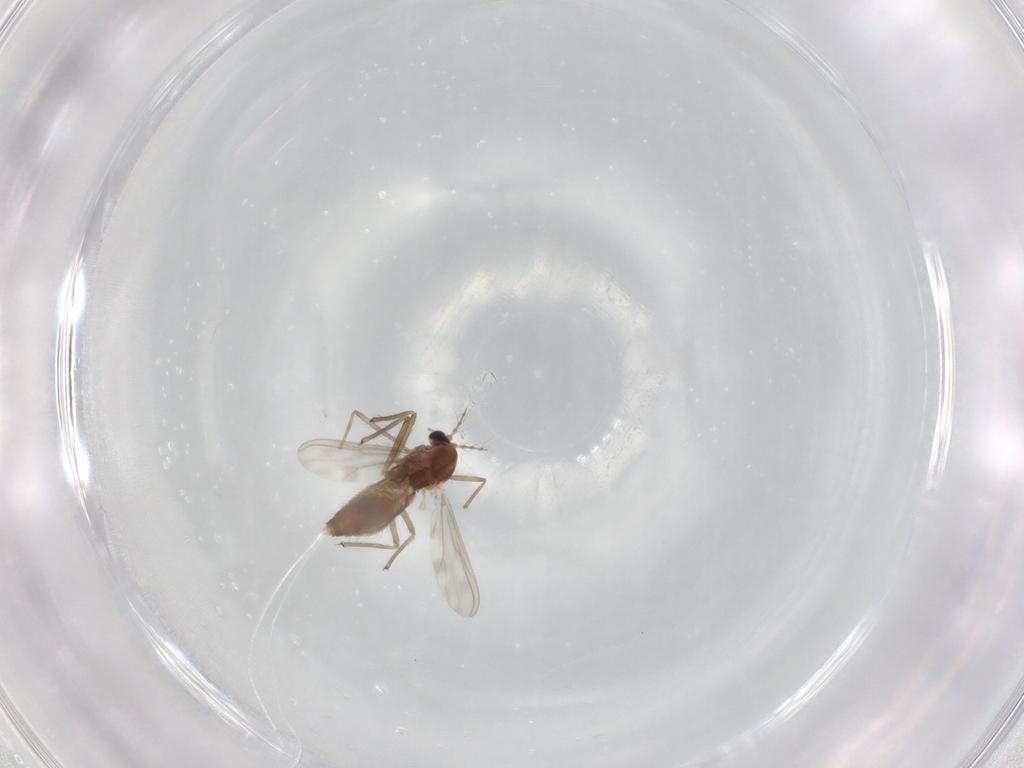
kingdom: Animalia
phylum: Arthropoda
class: Insecta
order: Diptera
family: Chironomidae
